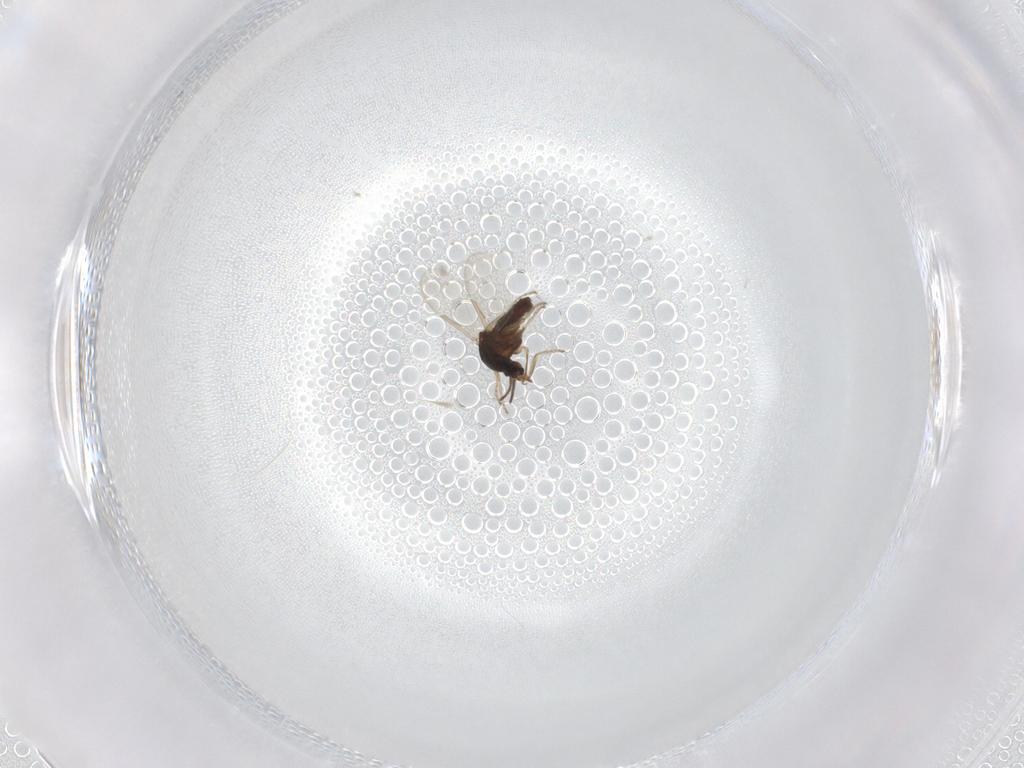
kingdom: Animalia
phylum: Arthropoda
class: Insecta
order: Diptera
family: Ceratopogonidae
